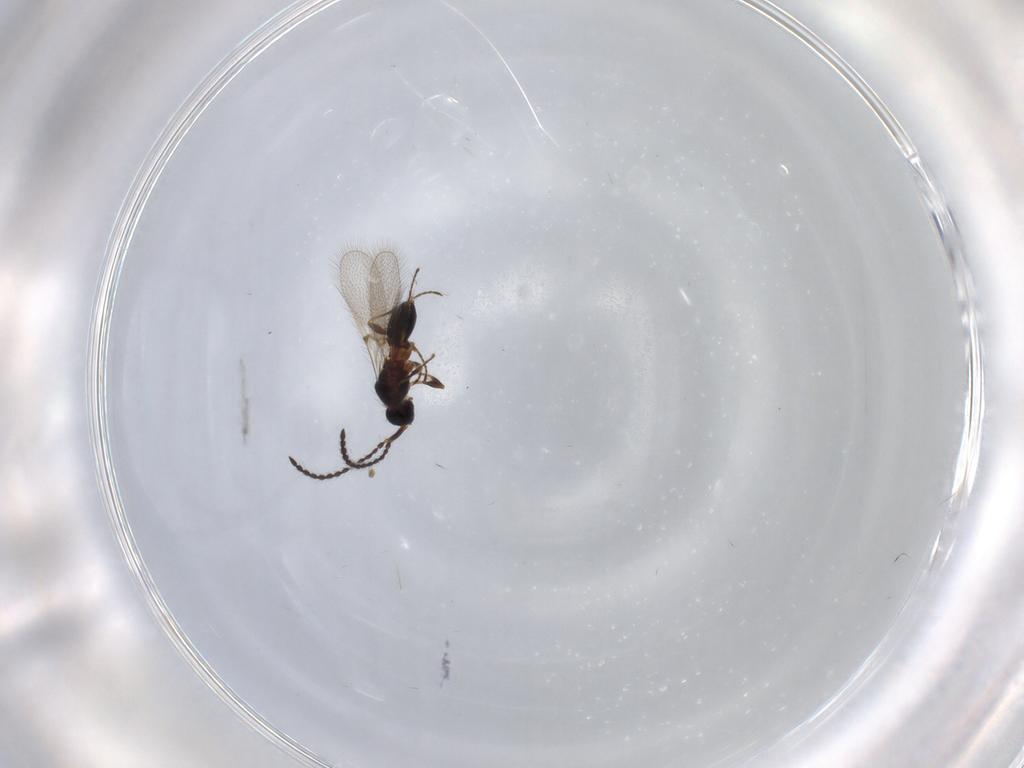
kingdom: Animalia
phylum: Arthropoda
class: Insecta
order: Hymenoptera
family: Diapriidae
